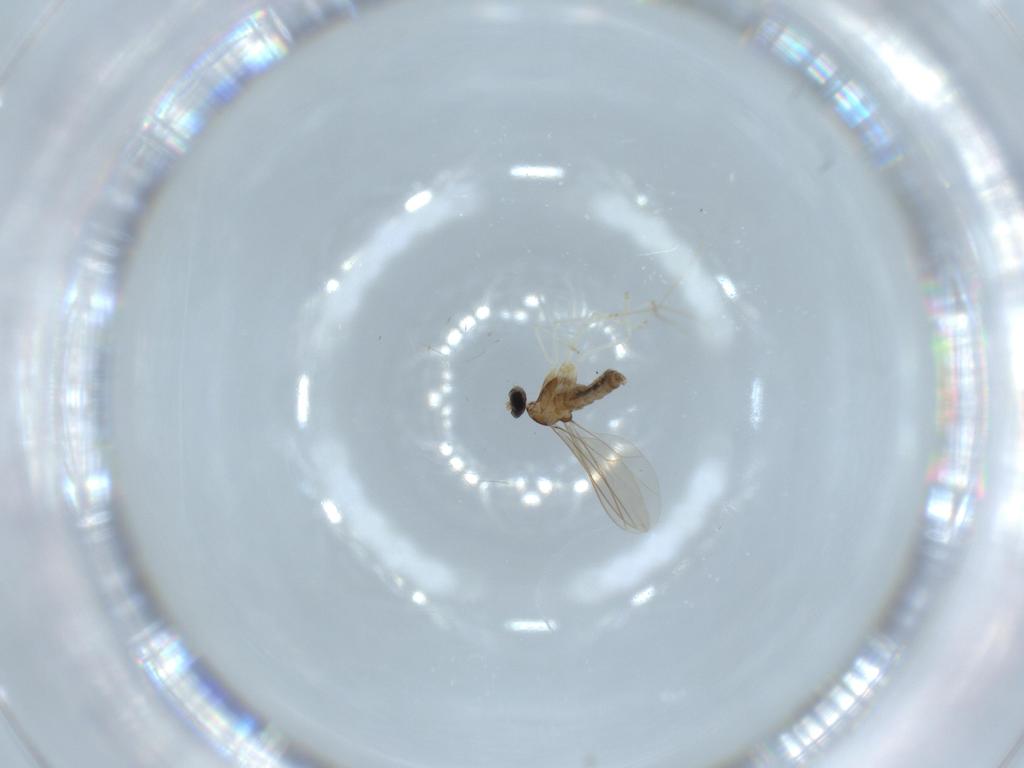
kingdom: Animalia
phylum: Arthropoda
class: Insecta
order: Diptera
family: Cecidomyiidae
